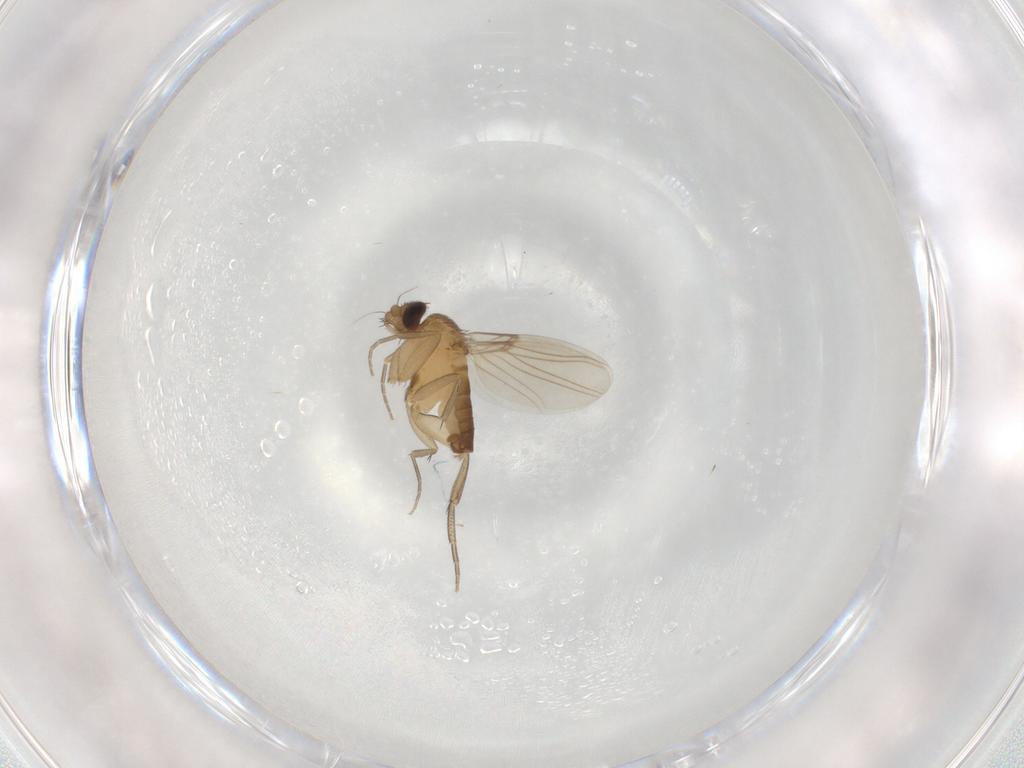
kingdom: Animalia
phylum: Arthropoda
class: Insecta
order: Diptera
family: Phoridae
